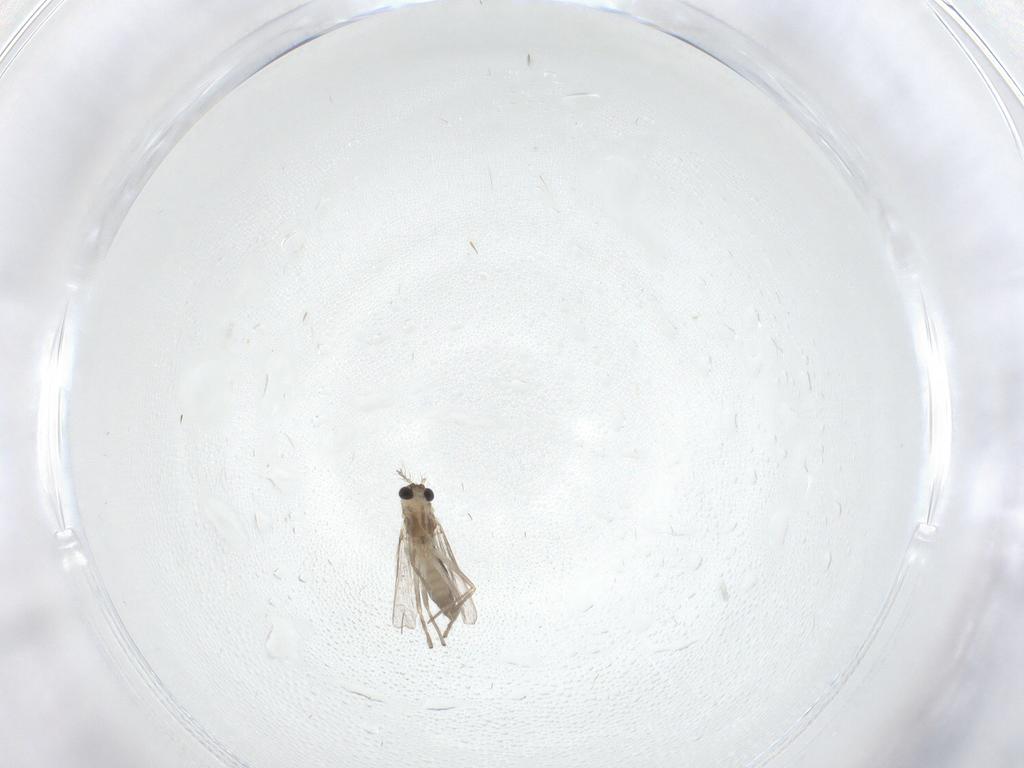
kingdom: Animalia
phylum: Arthropoda
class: Insecta
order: Diptera
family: Chironomidae
